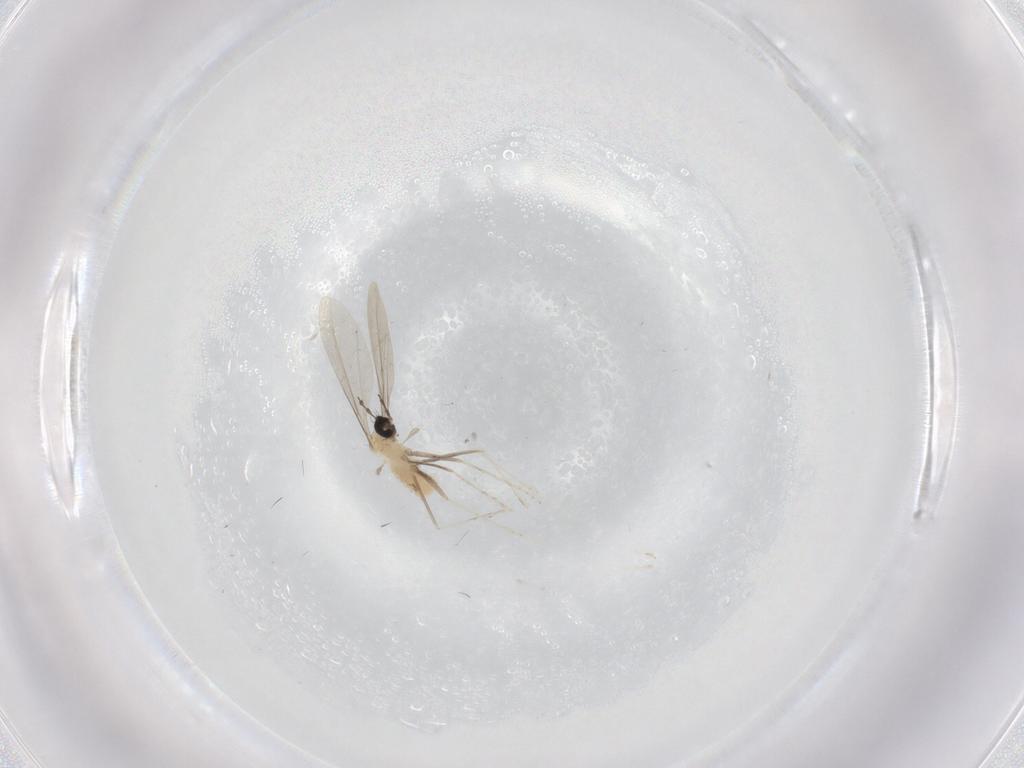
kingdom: Animalia
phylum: Arthropoda
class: Insecta
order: Diptera
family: Cecidomyiidae
